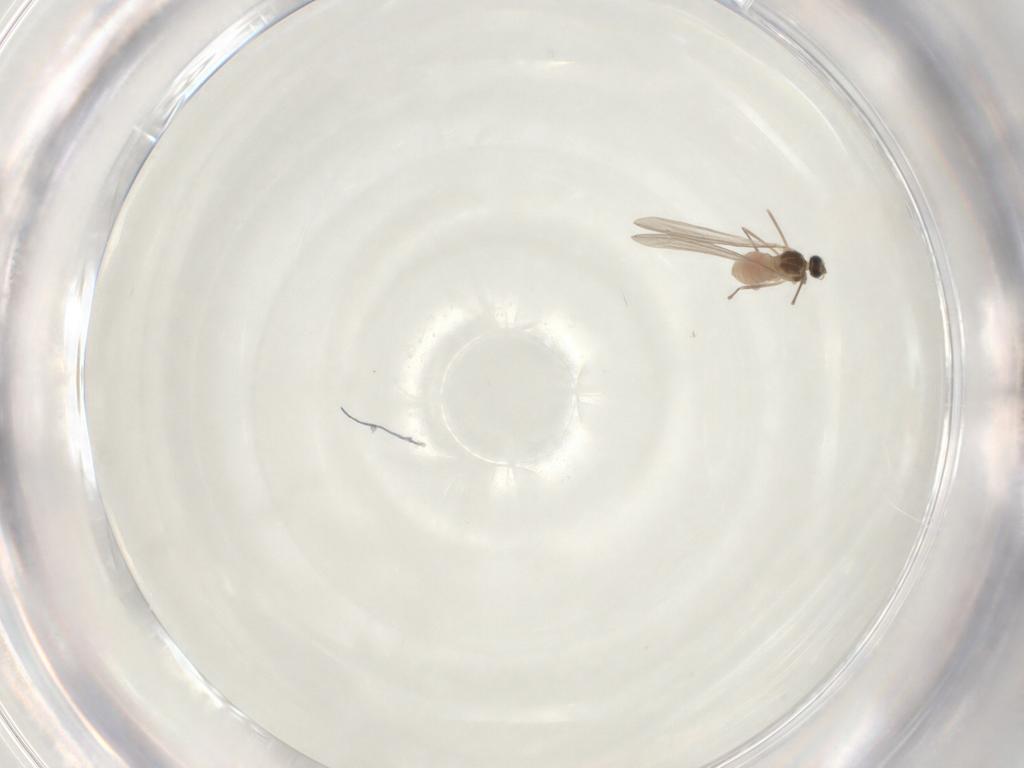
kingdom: Animalia
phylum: Arthropoda
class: Insecta
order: Diptera
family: Cecidomyiidae
